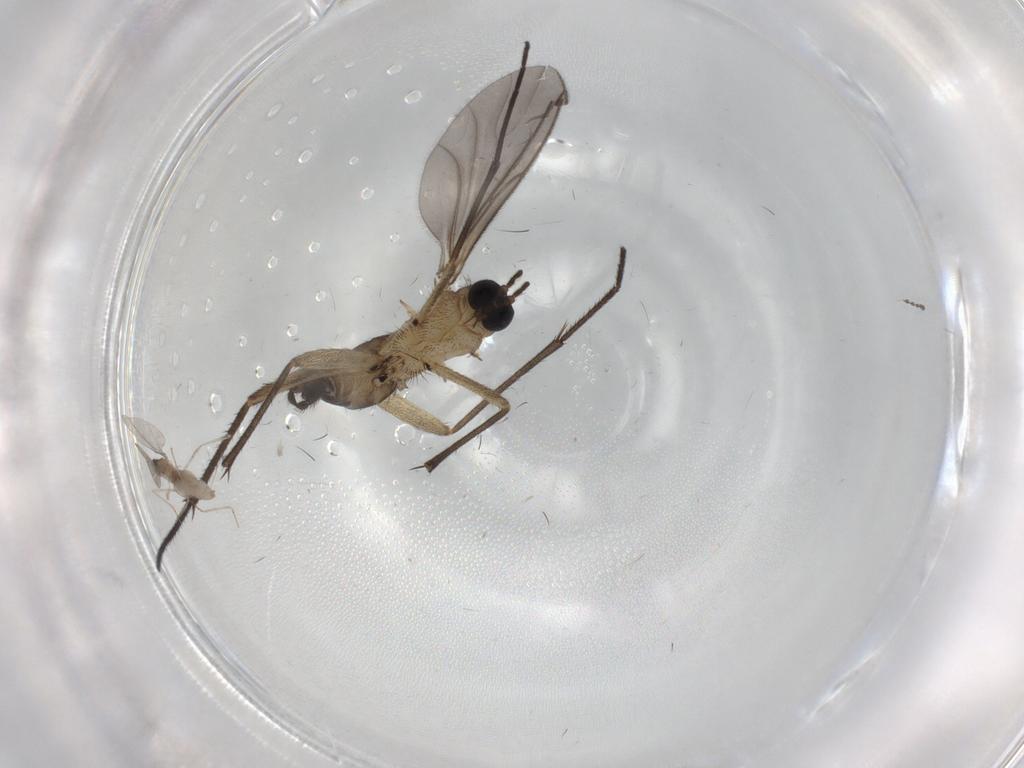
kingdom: Animalia
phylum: Arthropoda
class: Insecta
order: Diptera
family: Sciaridae
